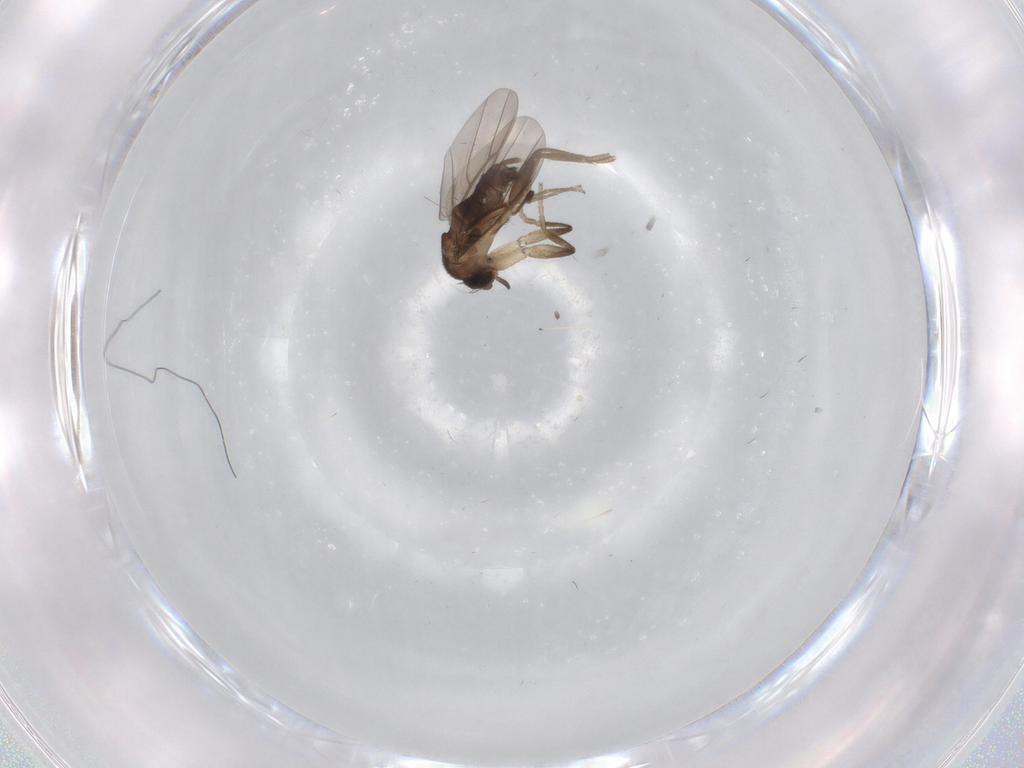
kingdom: Animalia
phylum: Arthropoda
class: Insecta
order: Diptera
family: Phoridae
